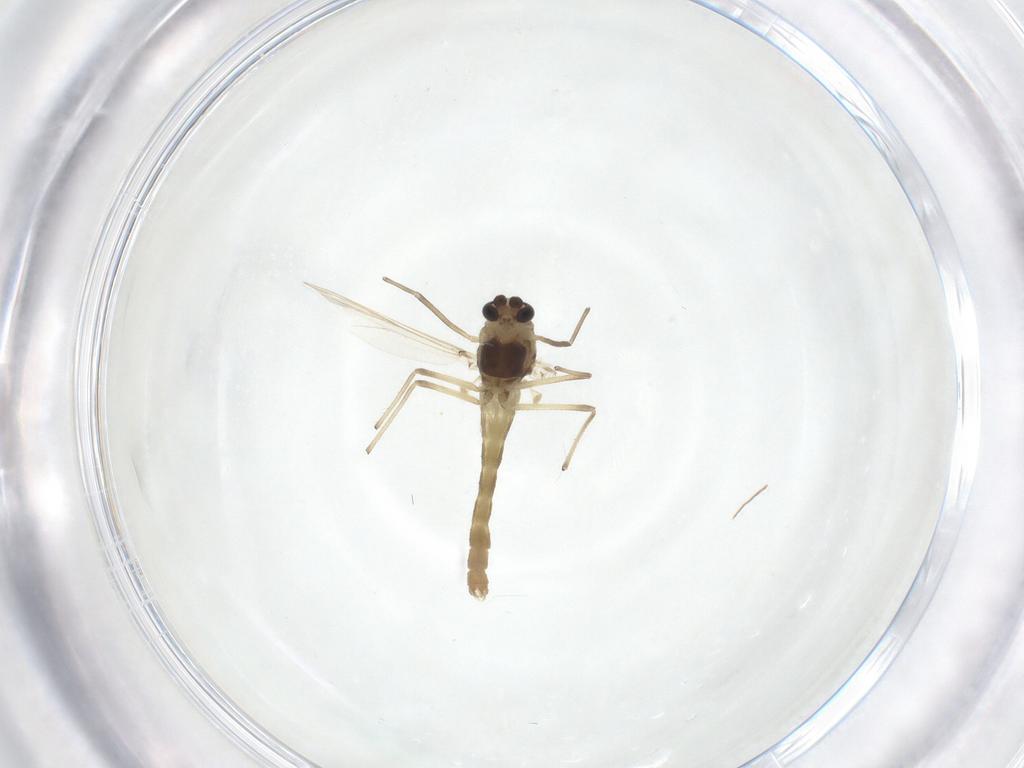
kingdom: Animalia
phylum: Arthropoda
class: Insecta
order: Diptera
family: Chironomidae
